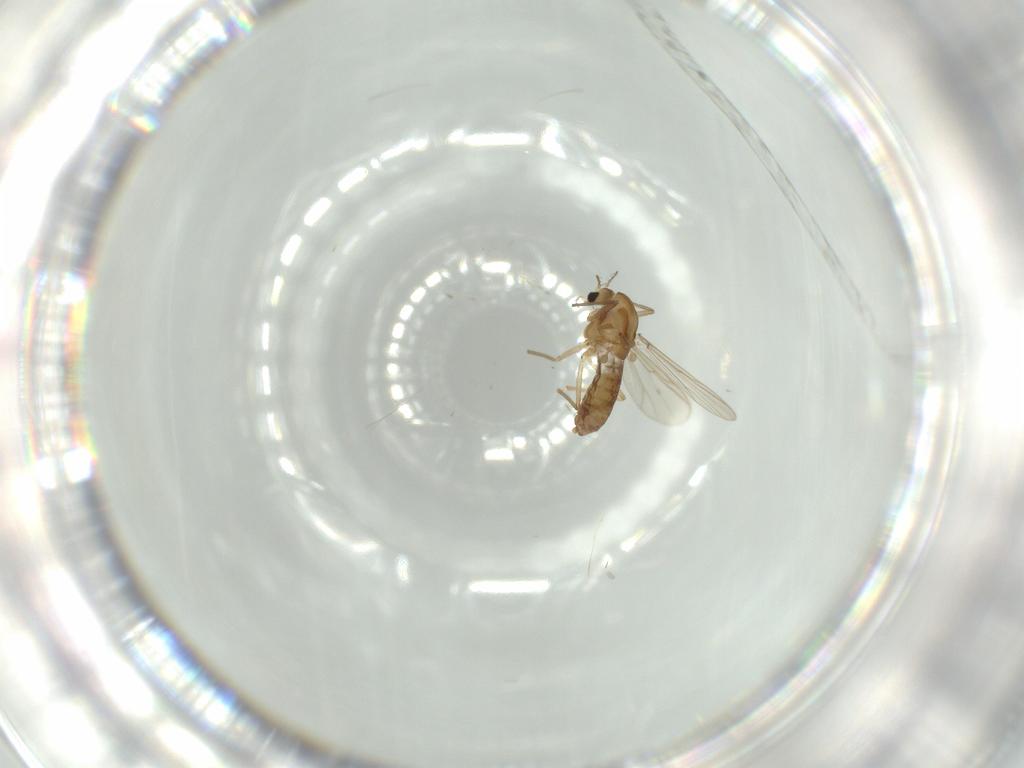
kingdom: Animalia
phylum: Arthropoda
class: Insecta
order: Diptera
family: Chironomidae
